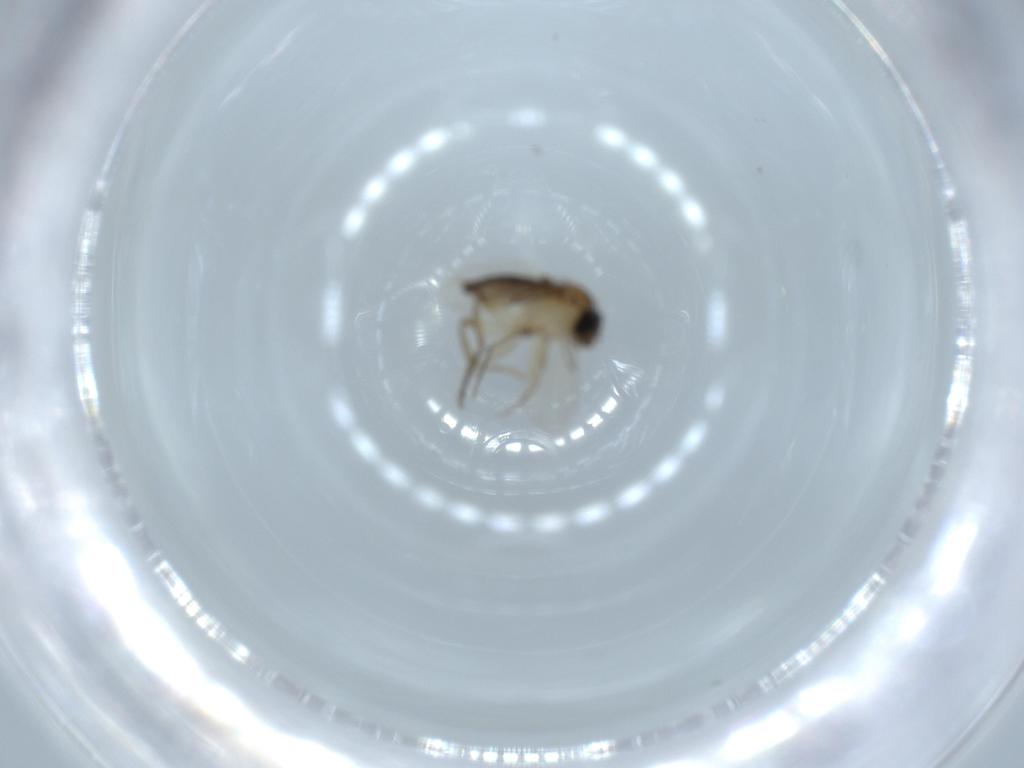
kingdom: Animalia
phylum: Arthropoda
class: Insecta
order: Diptera
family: Phoridae
